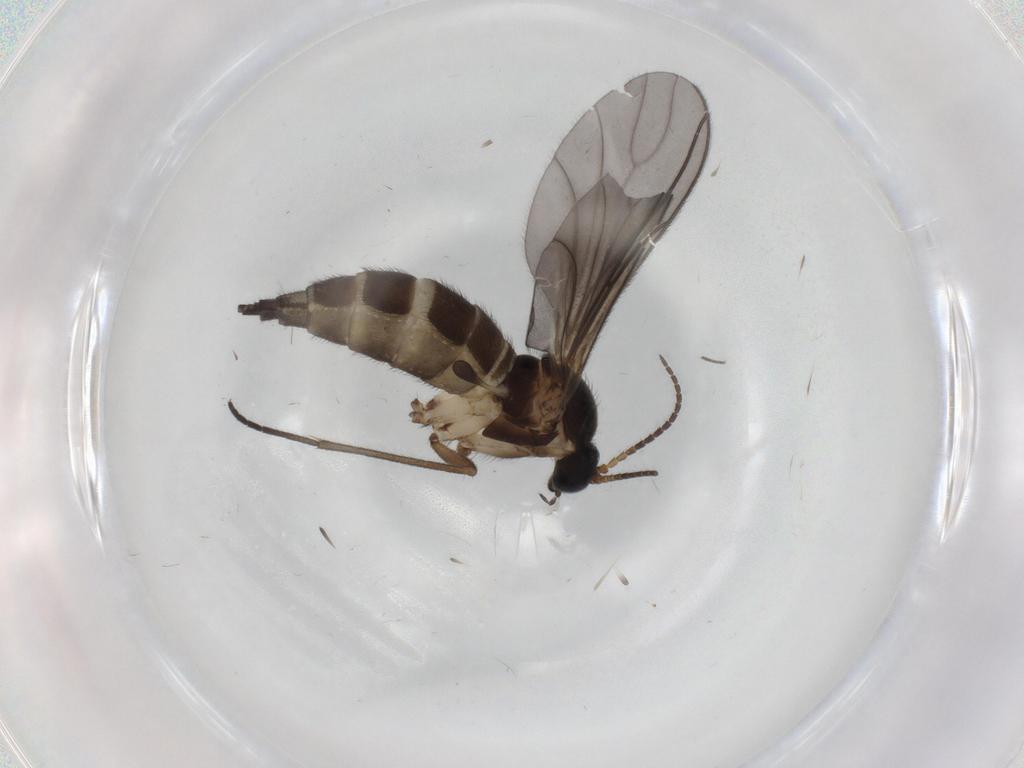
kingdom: Animalia
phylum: Arthropoda
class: Insecta
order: Diptera
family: Sciaridae
